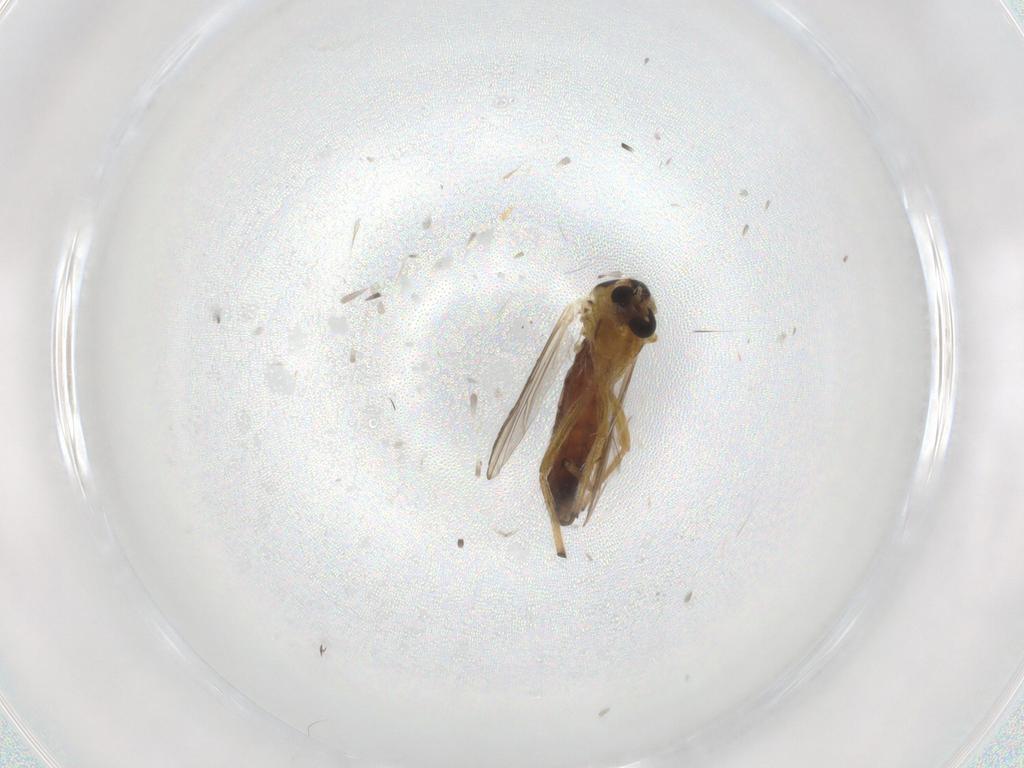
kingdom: Animalia
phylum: Arthropoda
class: Insecta
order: Diptera
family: Chironomidae
